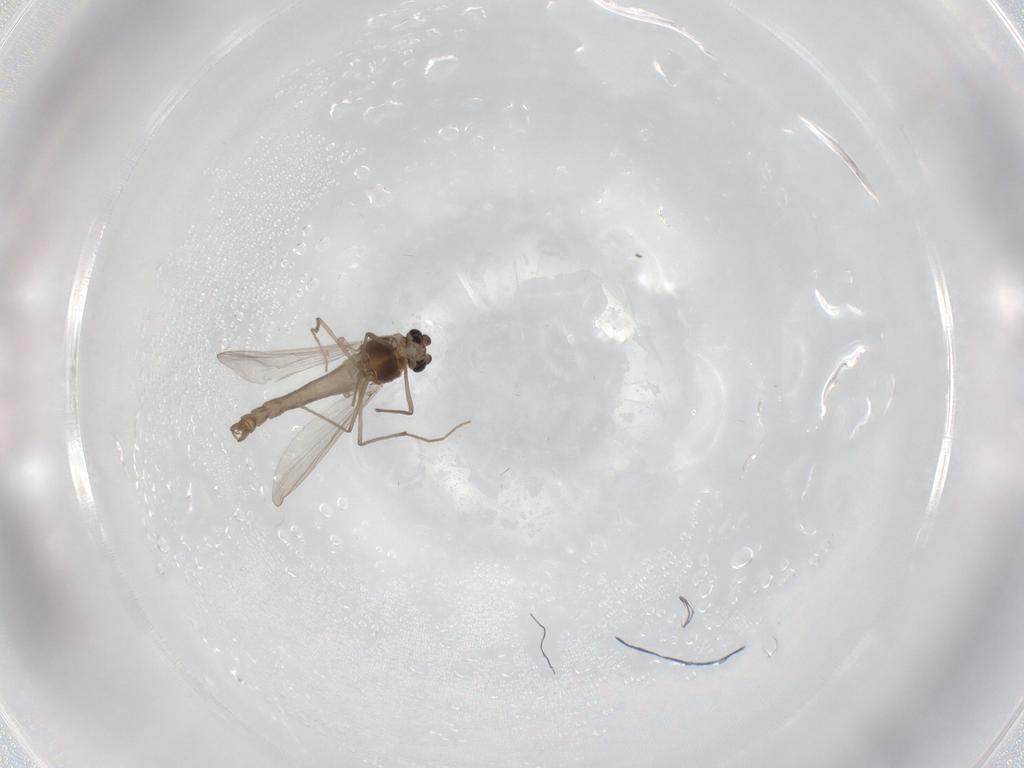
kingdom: Animalia
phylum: Arthropoda
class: Insecta
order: Diptera
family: Chironomidae
